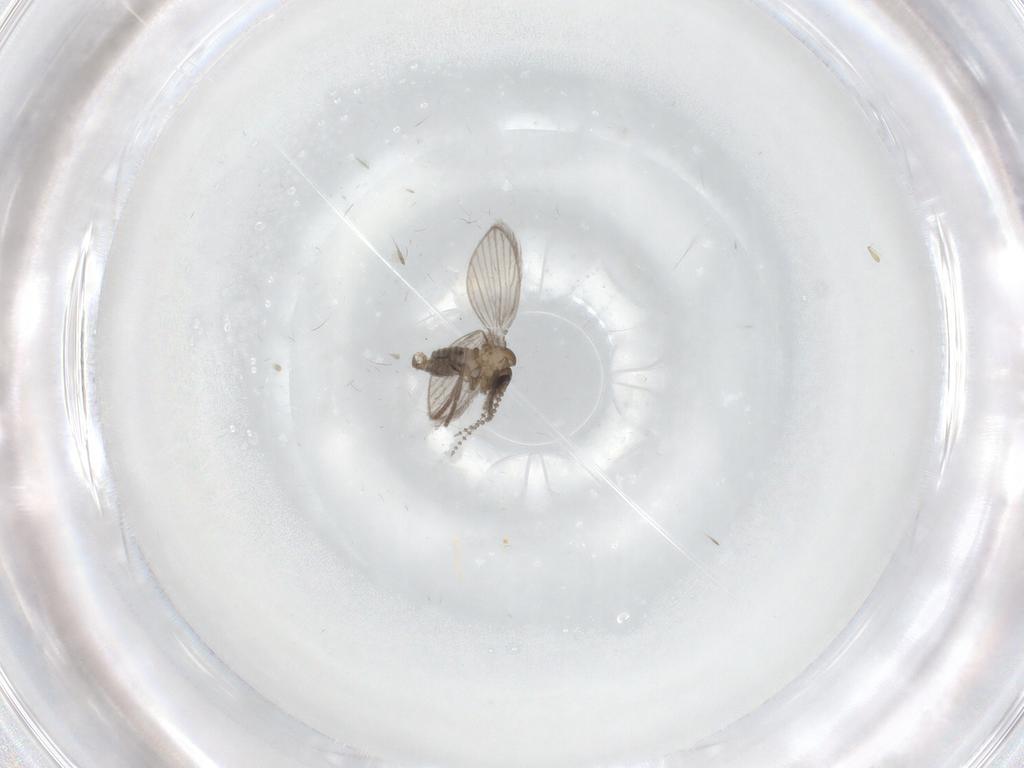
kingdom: Animalia
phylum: Arthropoda
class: Insecta
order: Diptera
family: Psychodidae
